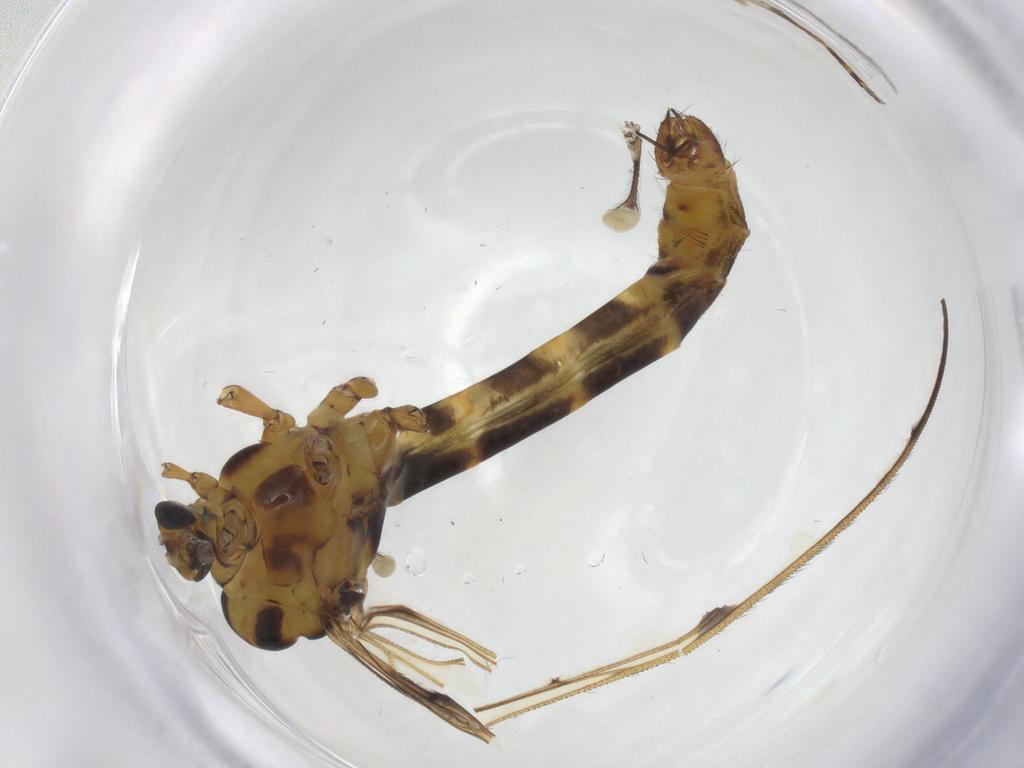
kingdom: Animalia
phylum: Arthropoda
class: Insecta
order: Diptera
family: Limoniidae
